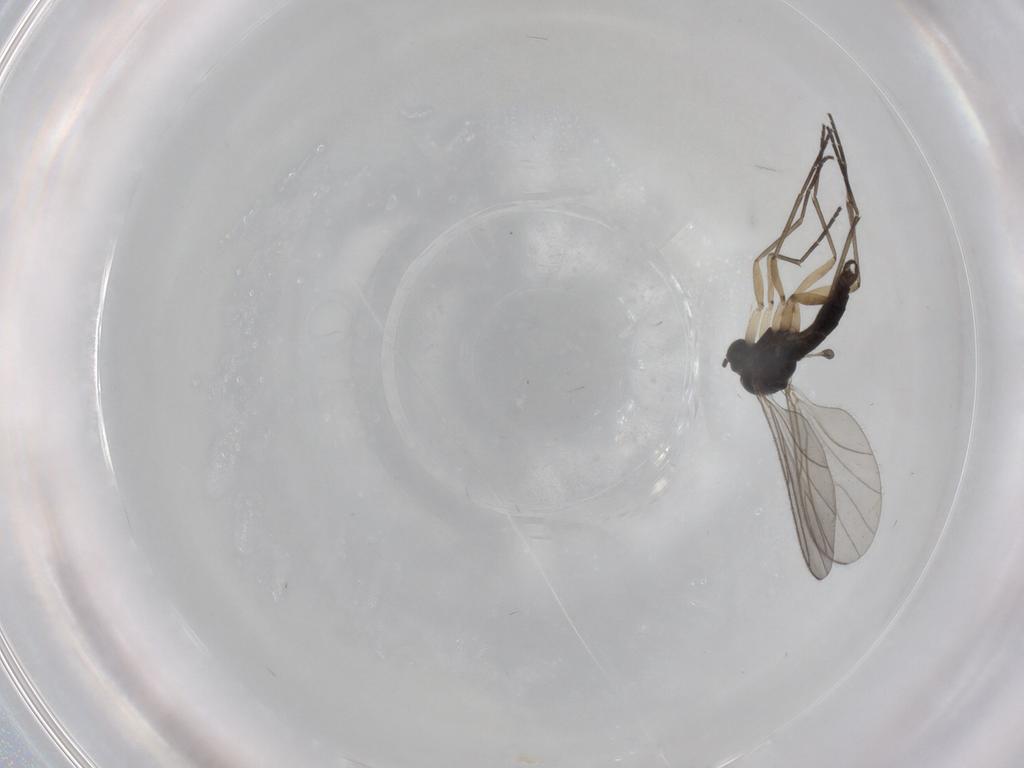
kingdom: Animalia
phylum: Arthropoda
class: Insecta
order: Diptera
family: Sciaridae
